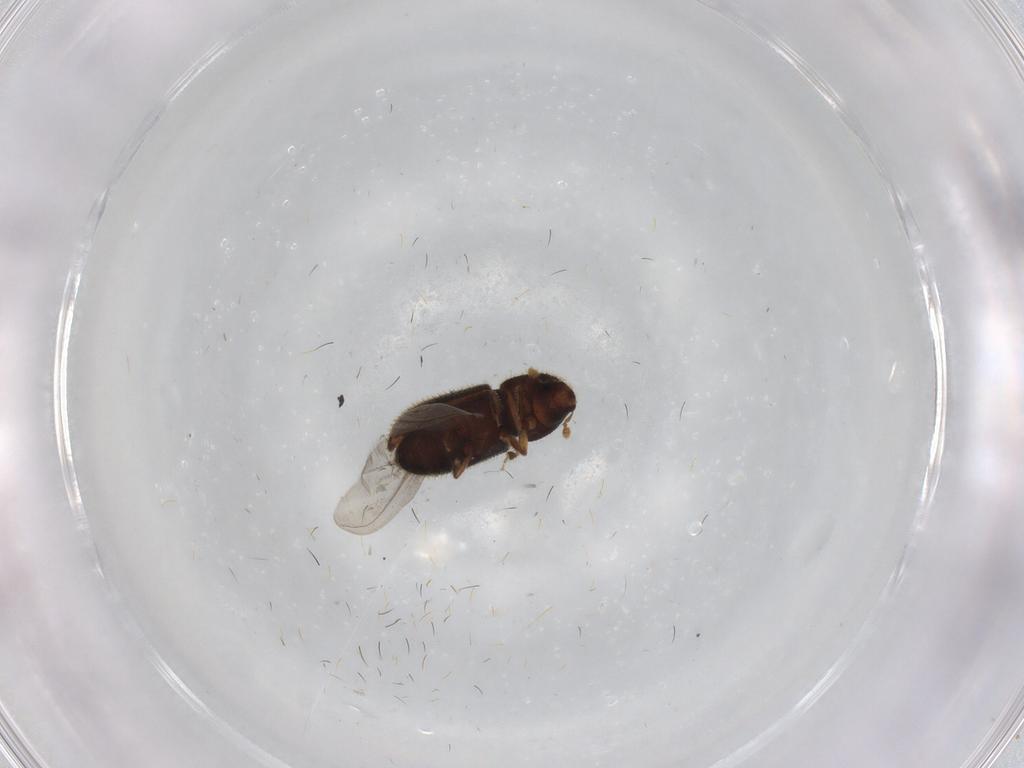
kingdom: Animalia
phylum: Arthropoda
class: Insecta
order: Coleoptera
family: Curculionidae
